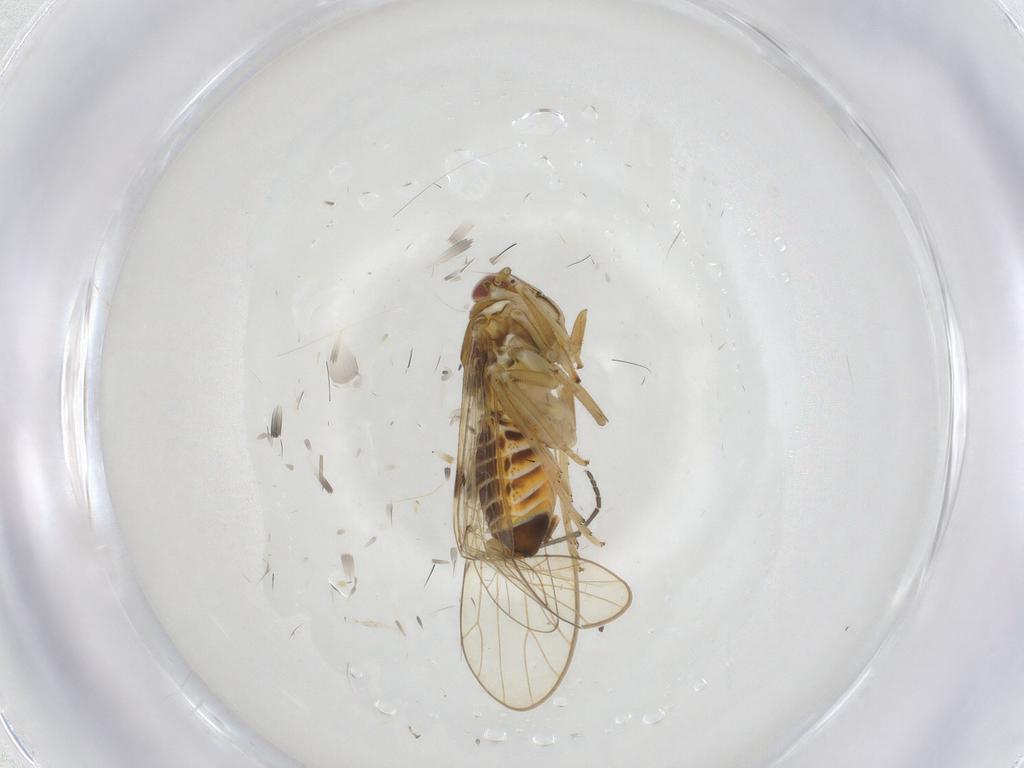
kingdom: Animalia
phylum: Arthropoda
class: Insecta
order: Hemiptera
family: Delphacidae
